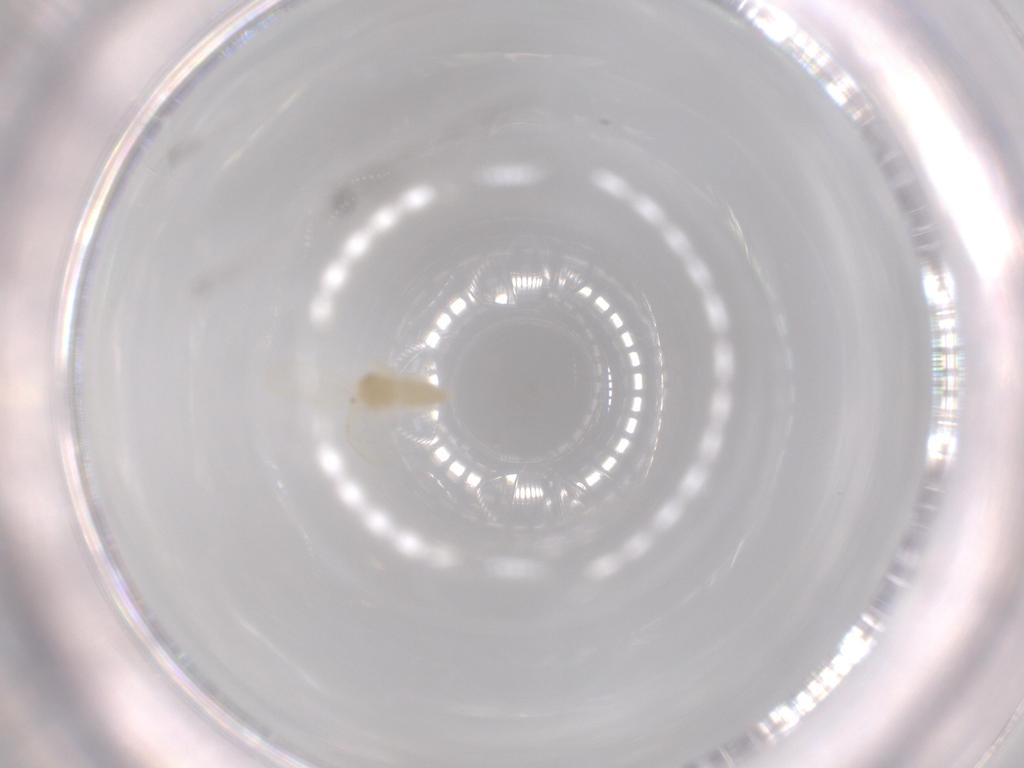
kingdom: Animalia
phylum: Arthropoda
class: Insecta
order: Hemiptera
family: Aleyrodidae
